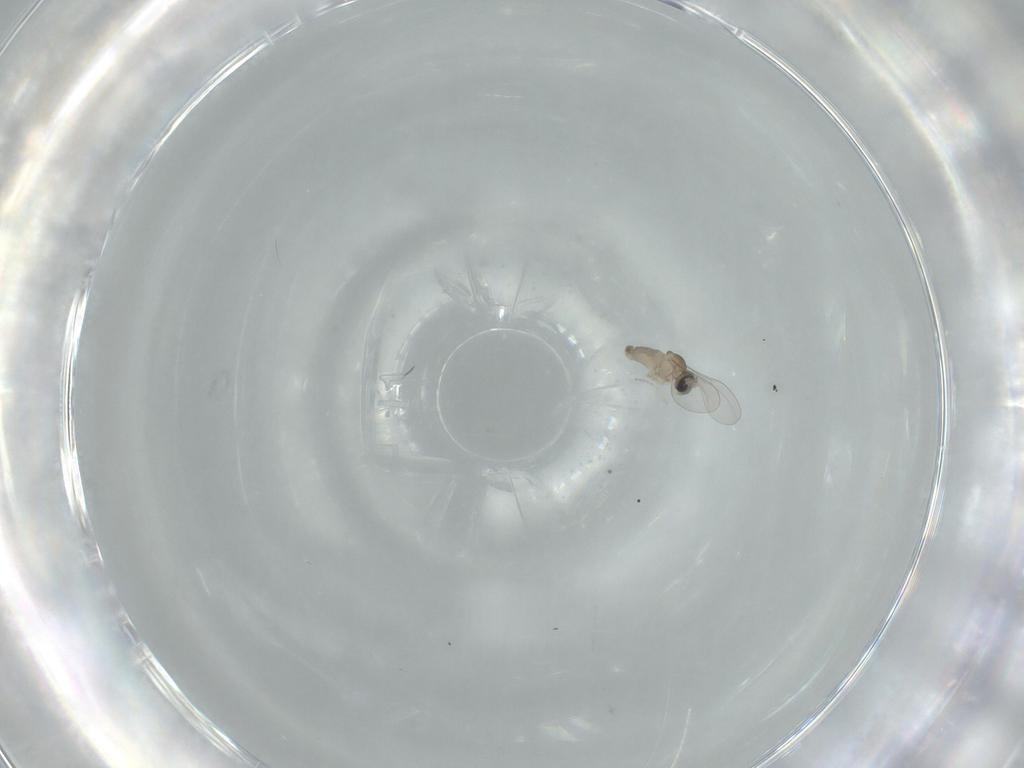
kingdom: Animalia
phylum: Arthropoda
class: Insecta
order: Diptera
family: Cecidomyiidae
